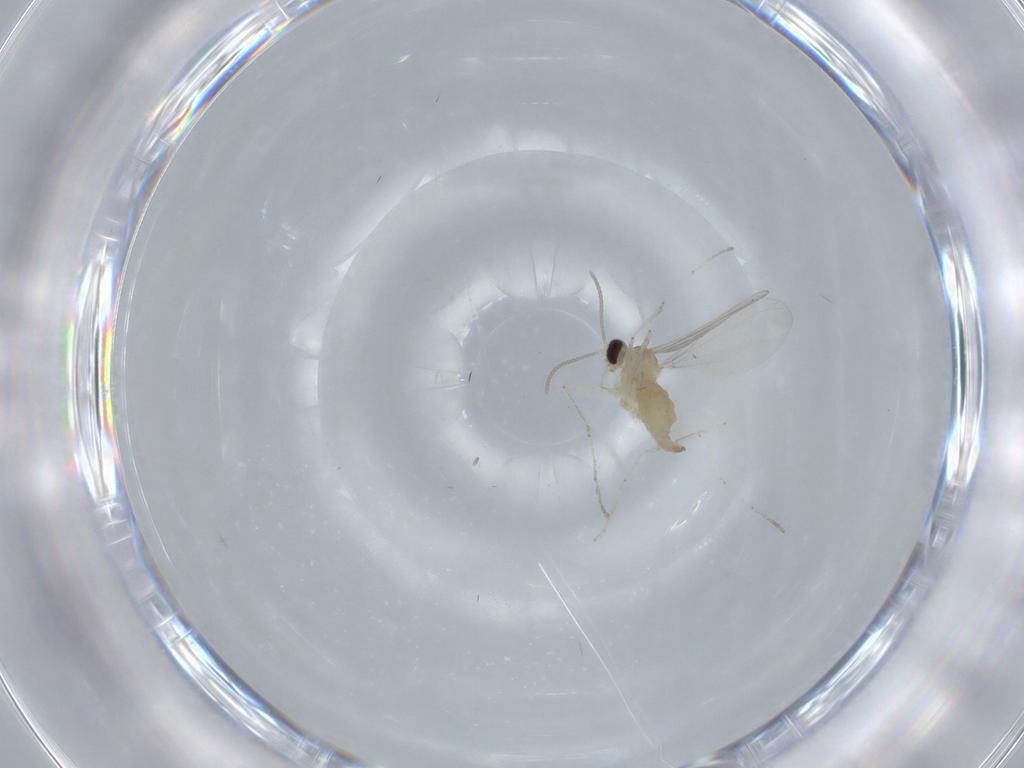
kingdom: Animalia
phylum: Arthropoda
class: Insecta
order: Diptera
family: Cecidomyiidae
